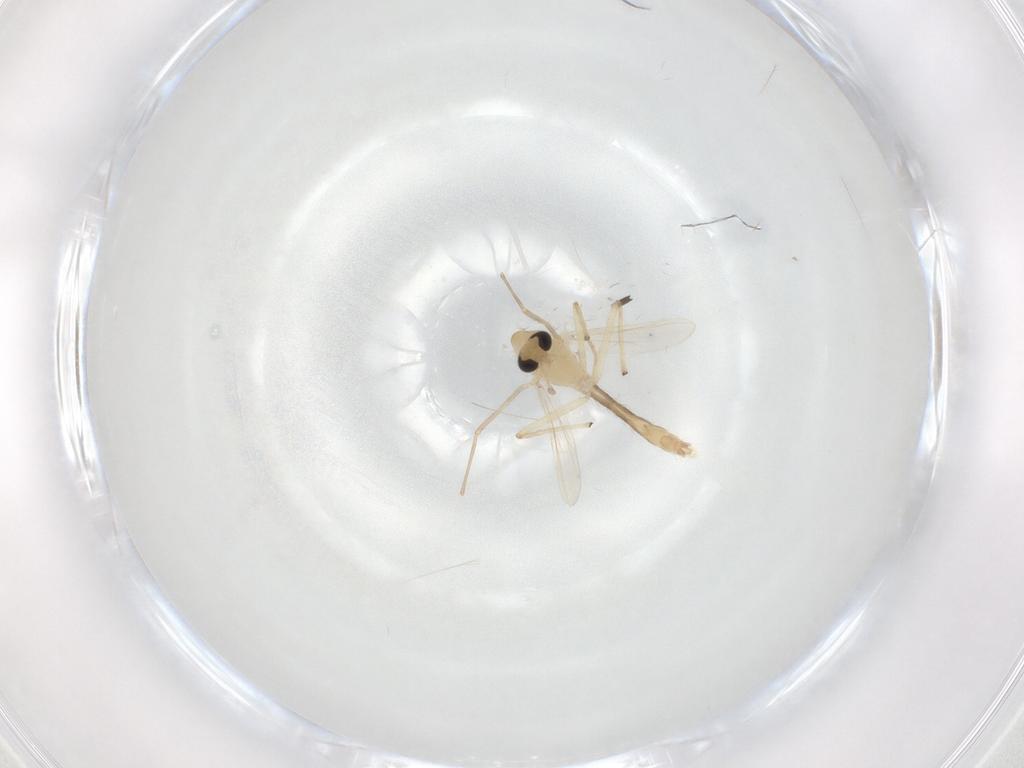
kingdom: Animalia
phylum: Arthropoda
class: Insecta
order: Diptera
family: Chironomidae
